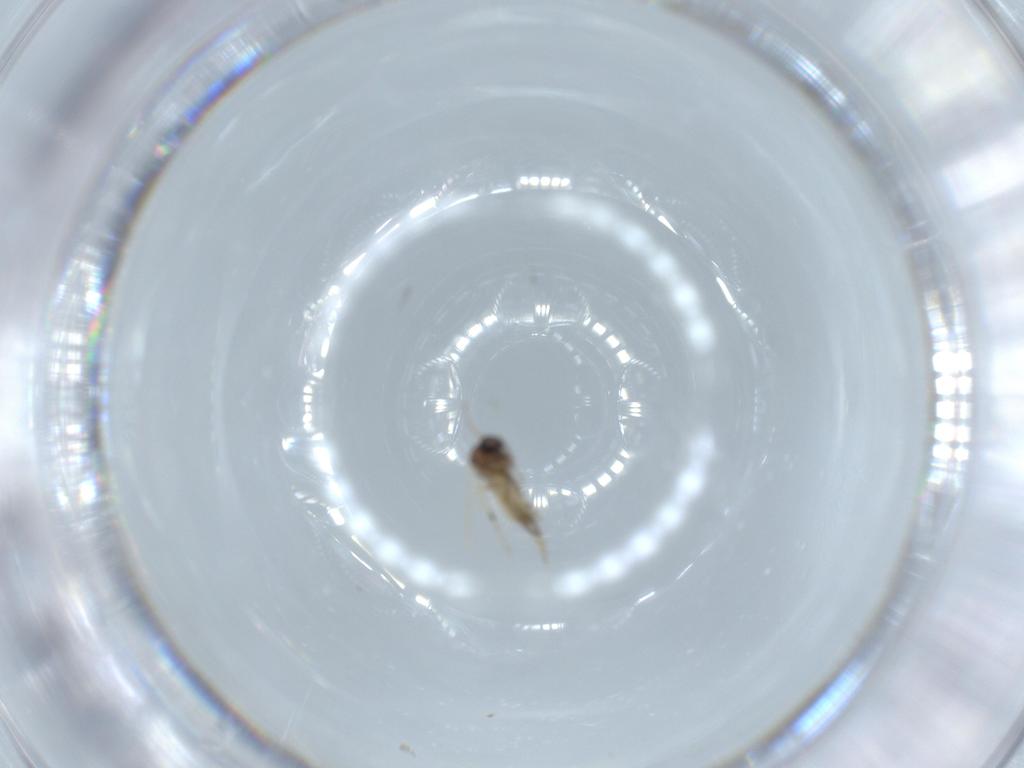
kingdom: Animalia
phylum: Arthropoda
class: Insecta
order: Diptera
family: Ceratopogonidae
